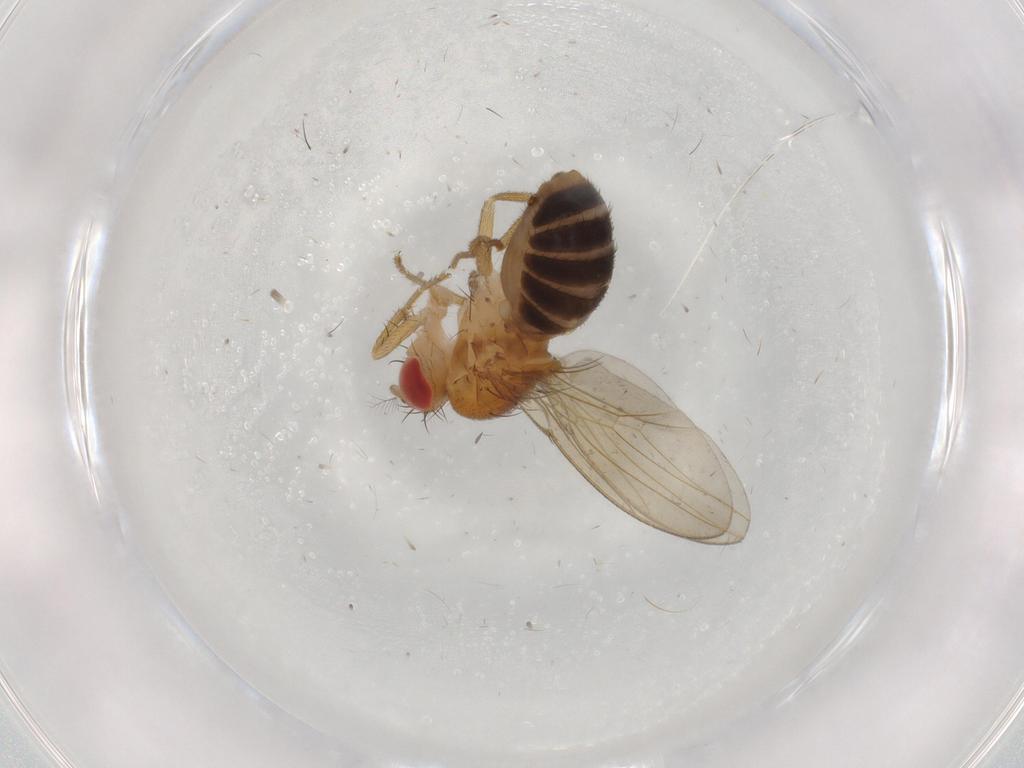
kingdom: Animalia
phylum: Arthropoda
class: Insecta
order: Diptera
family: Drosophilidae
